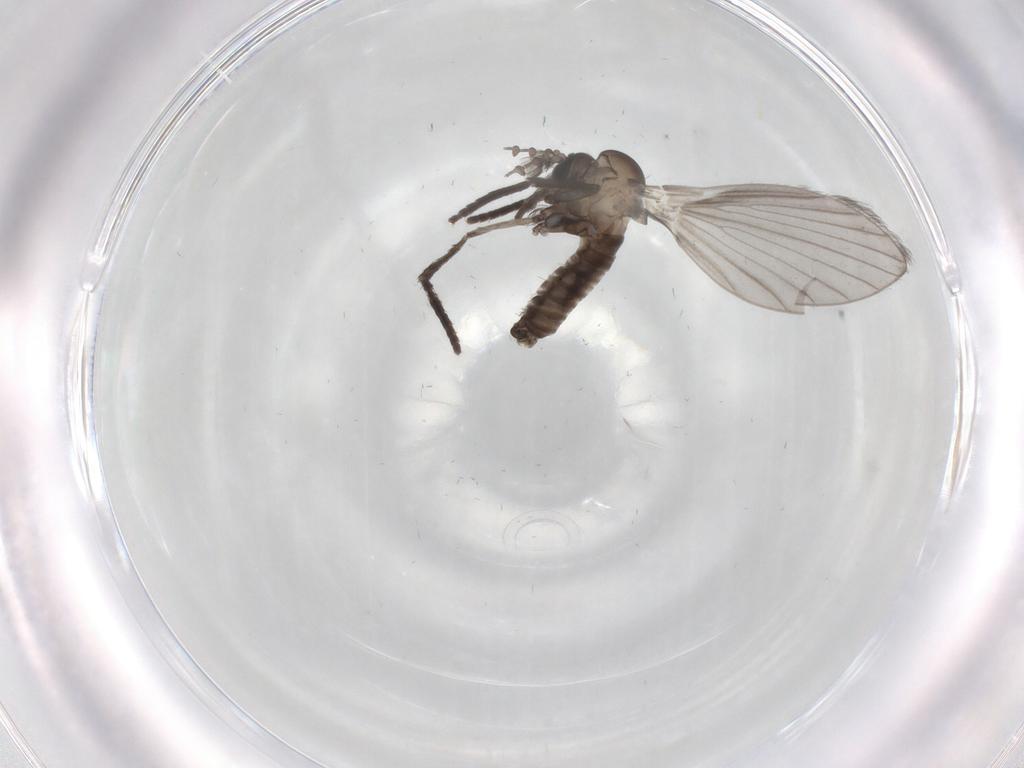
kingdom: Animalia
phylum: Arthropoda
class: Insecta
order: Diptera
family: Psychodidae
